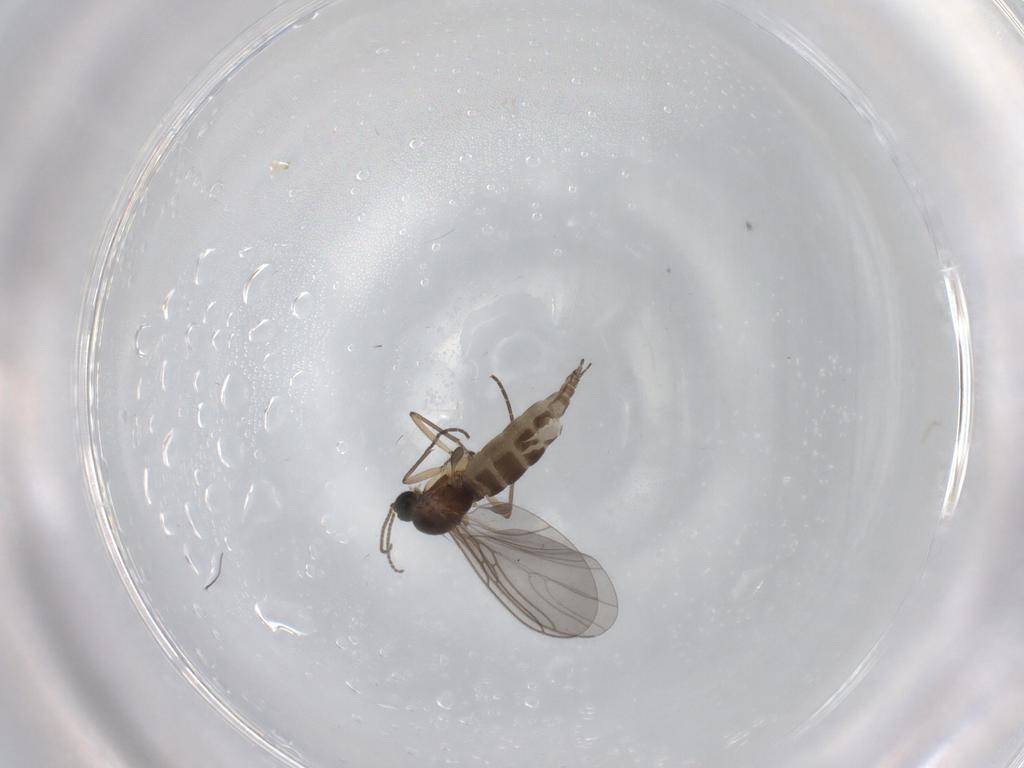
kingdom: Animalia
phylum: Arthropoda
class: Insecta
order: Diptera
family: Sciaridae
